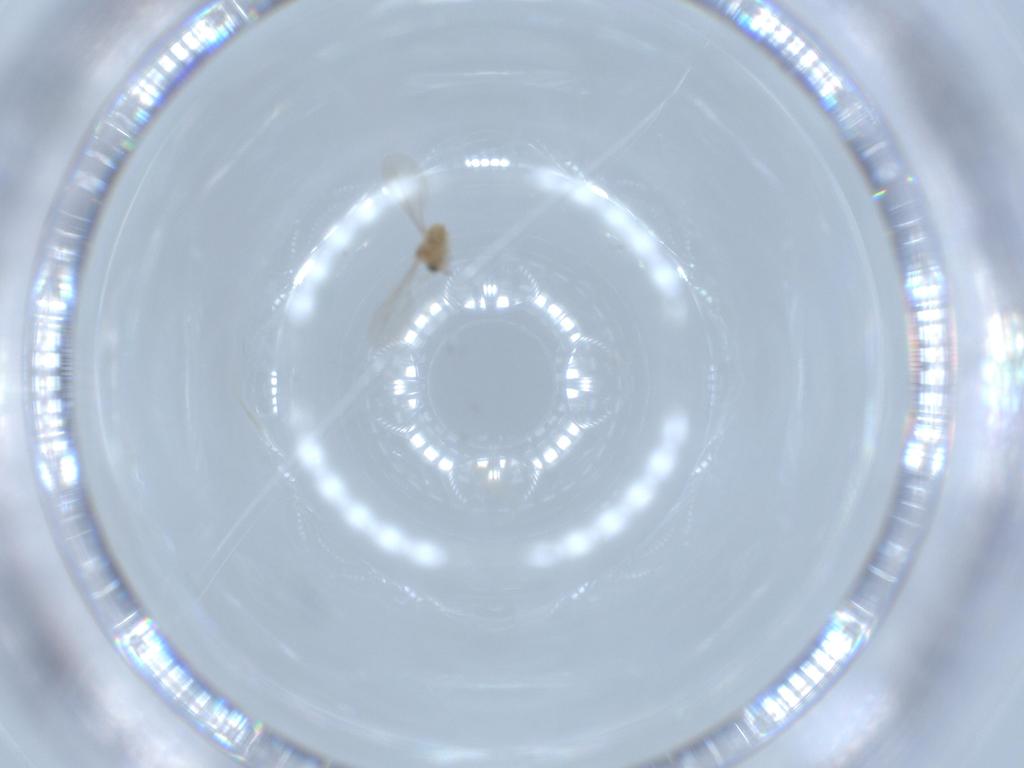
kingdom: Animalia
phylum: Arthropoda
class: Insecta
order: Diptera
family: Cecidomyiidae
